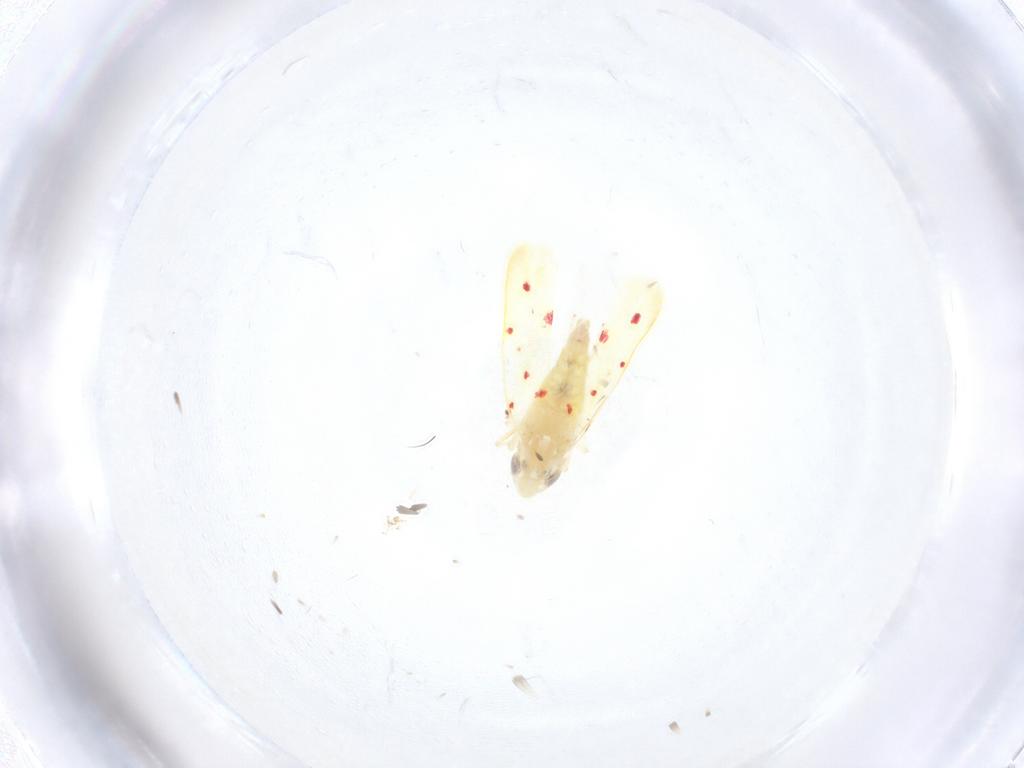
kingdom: Animalia
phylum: Arthropoda
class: Insecta
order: Hemiptera
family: Cicadellidae
